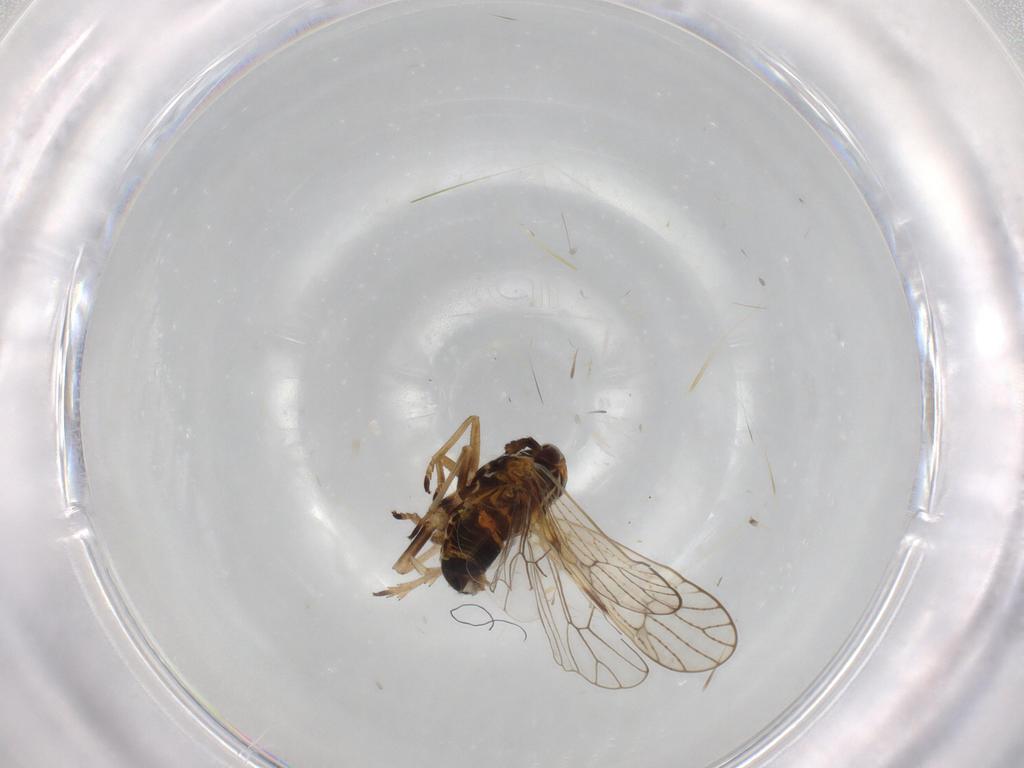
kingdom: Animalia
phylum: Arthropoda
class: Insecta
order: Hemiptera
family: Cicadellidae
